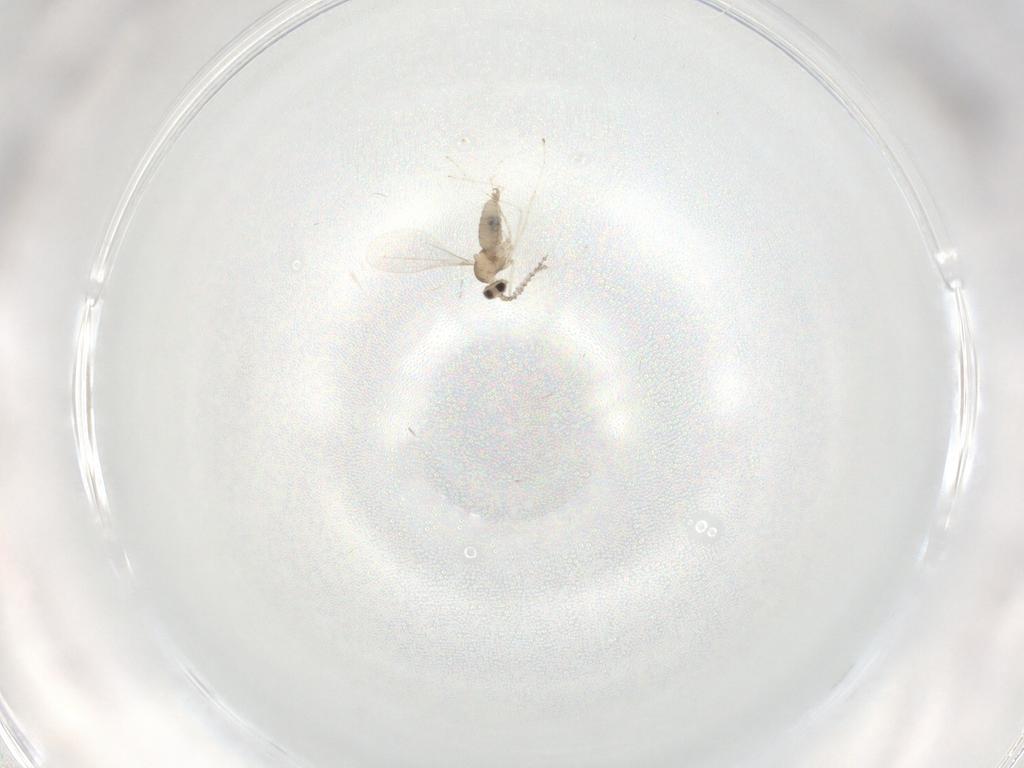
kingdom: Animalia
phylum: Arthropoda
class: Insecta
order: Diptera
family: Cecidomyiidae
